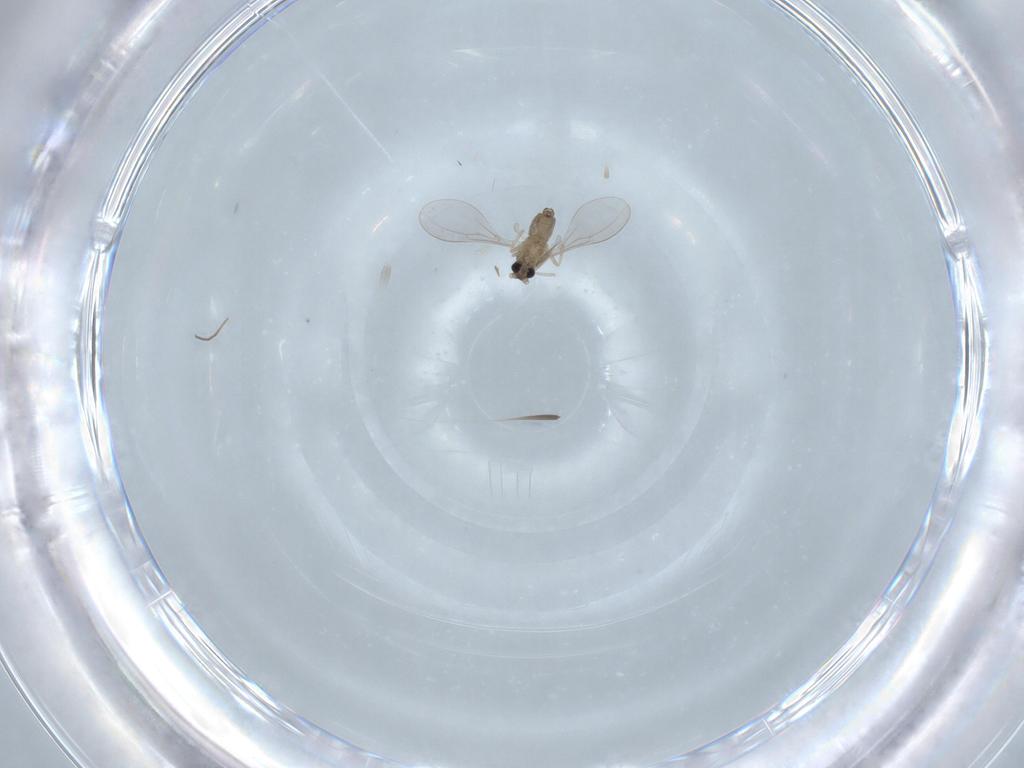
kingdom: Animalia
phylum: Arthropoda
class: Insecta
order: Diptera
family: Cecidomyiidae
